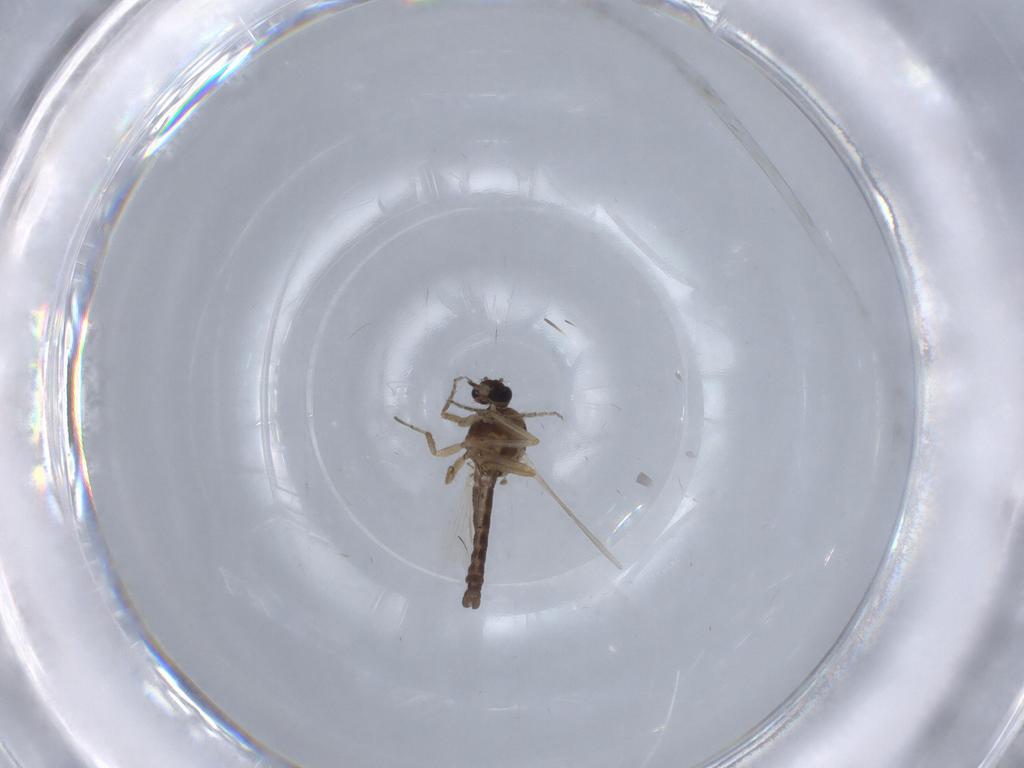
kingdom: Animalia
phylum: Arthropoda
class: Insecta
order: Diptera
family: Ceratopogonidae
